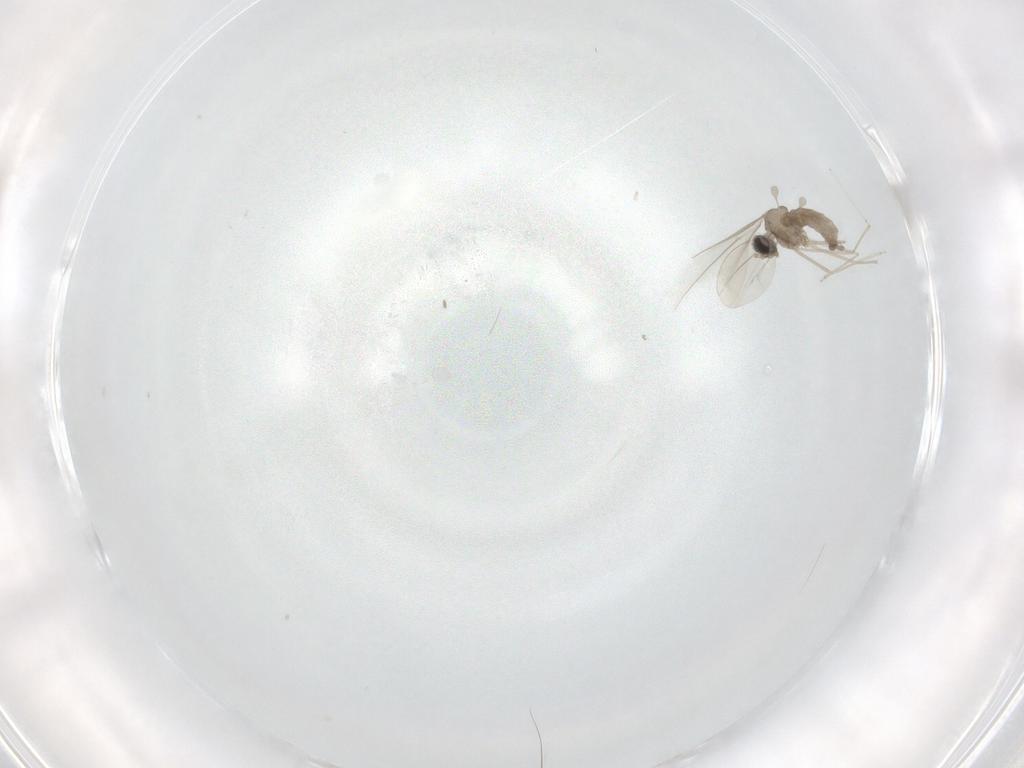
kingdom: Animalia
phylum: Arthropoda
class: Insecta
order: Diptera
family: Cecidomyiidae
